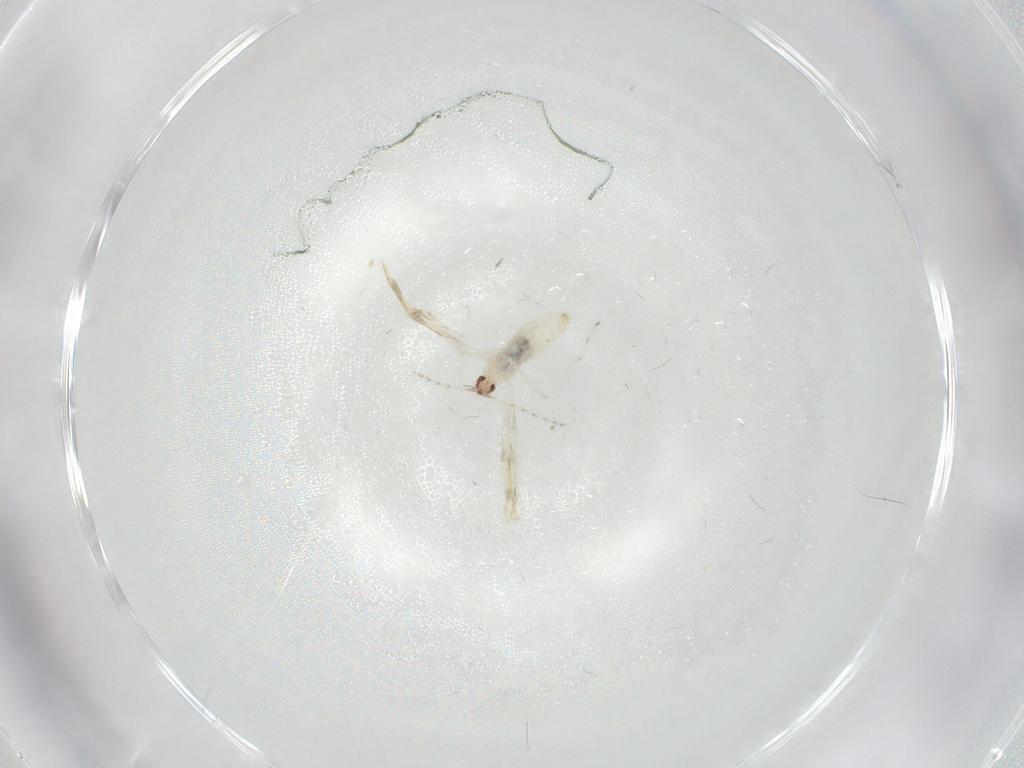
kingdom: Animalia
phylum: Arthropoda
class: Insecta
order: Diptera
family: Cecidomyiidae
